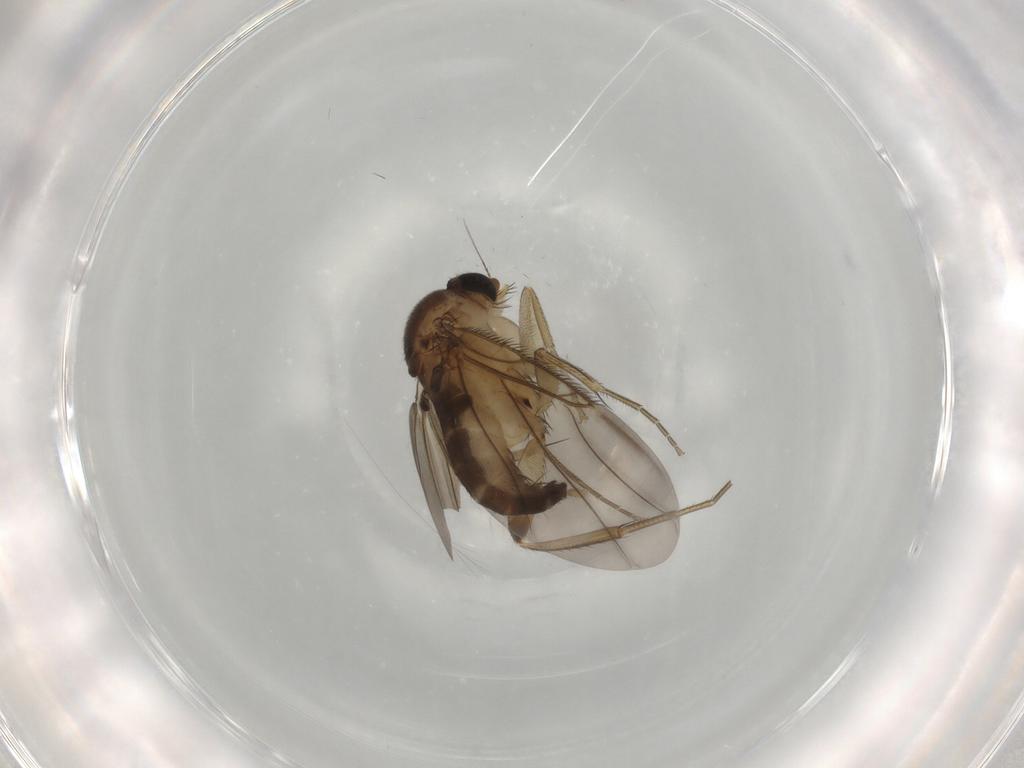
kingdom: Animalia
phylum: Arthropoda
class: Insecta
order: Diptera
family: Phoridae
